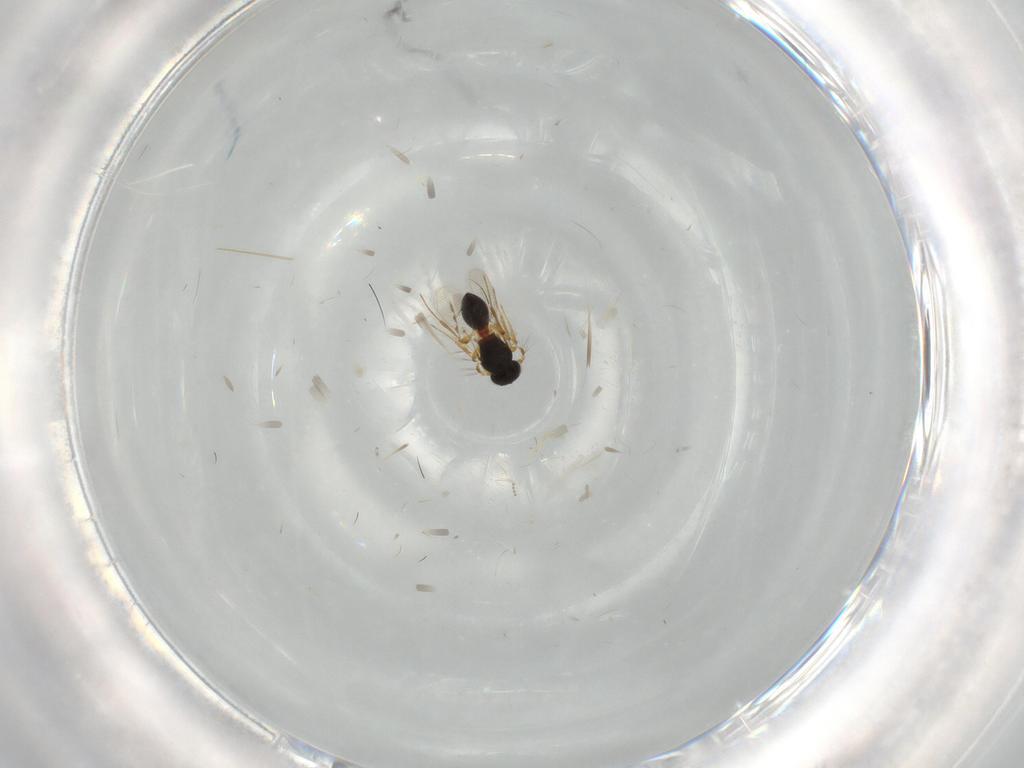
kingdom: Animalia
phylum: Arthropoda
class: Insecta
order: Hymenoptera
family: Platygastridae
